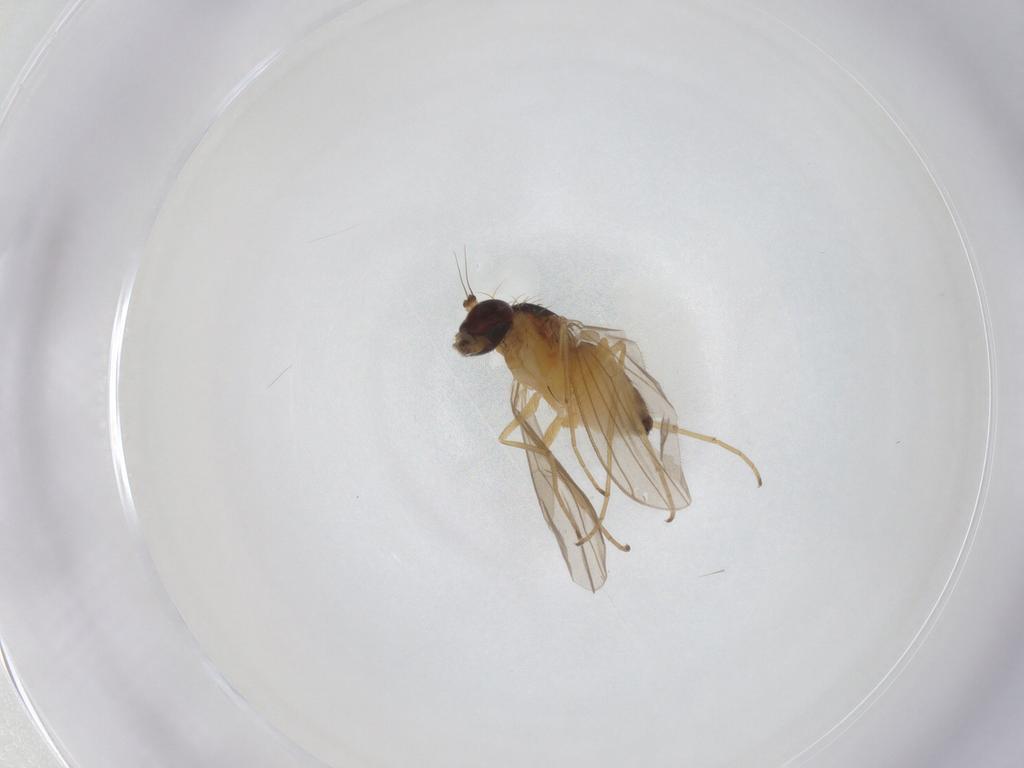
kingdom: Animalia
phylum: Arthropoda
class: Insecta
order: Diptera
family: Dolichopodidae
